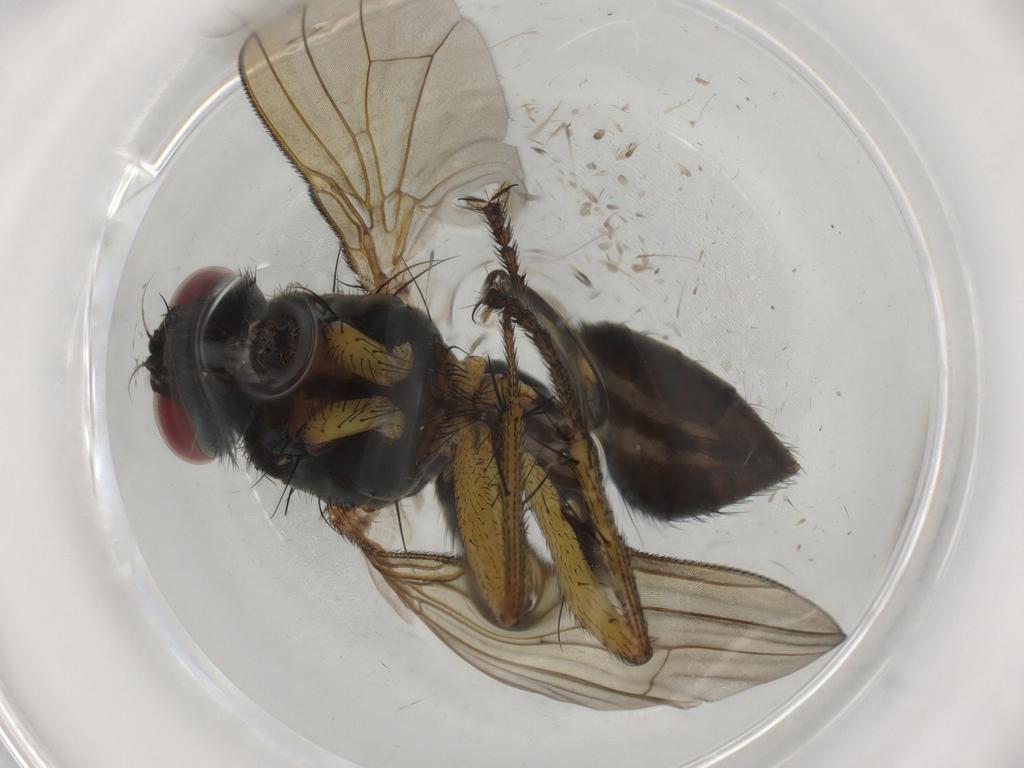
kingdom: Animalia
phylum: Arthropoda
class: Insecta
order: Diptera
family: Muscidae
